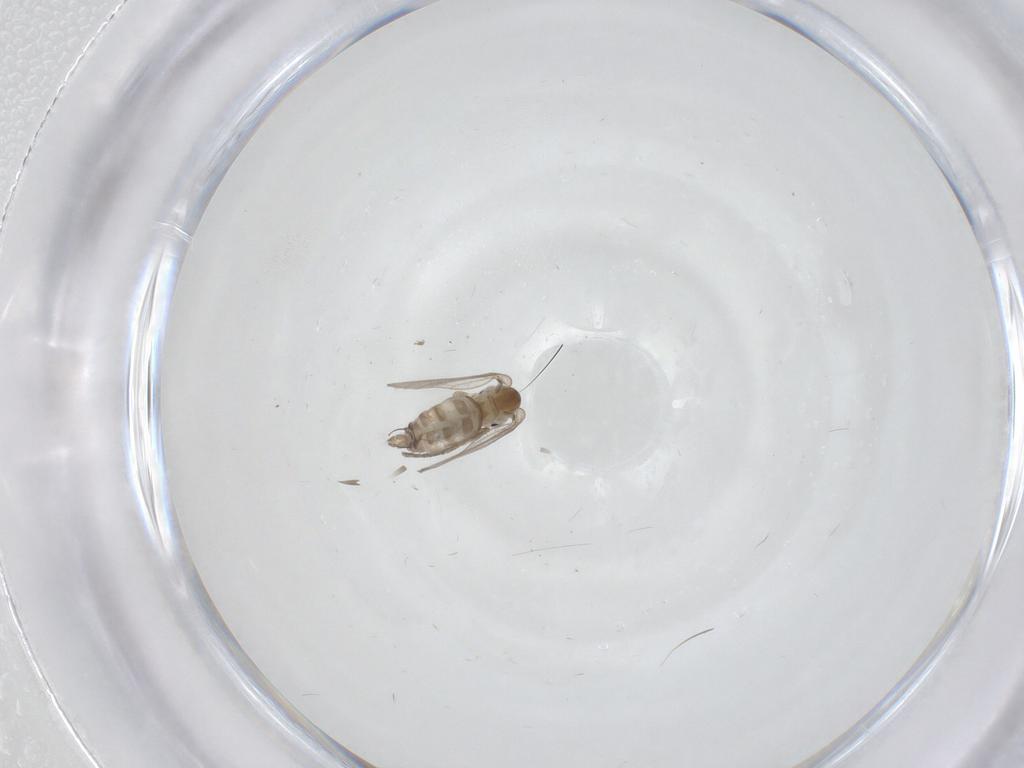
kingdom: Animalia
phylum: Arthropoda
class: Insecta
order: Diptera
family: Psychodidae
